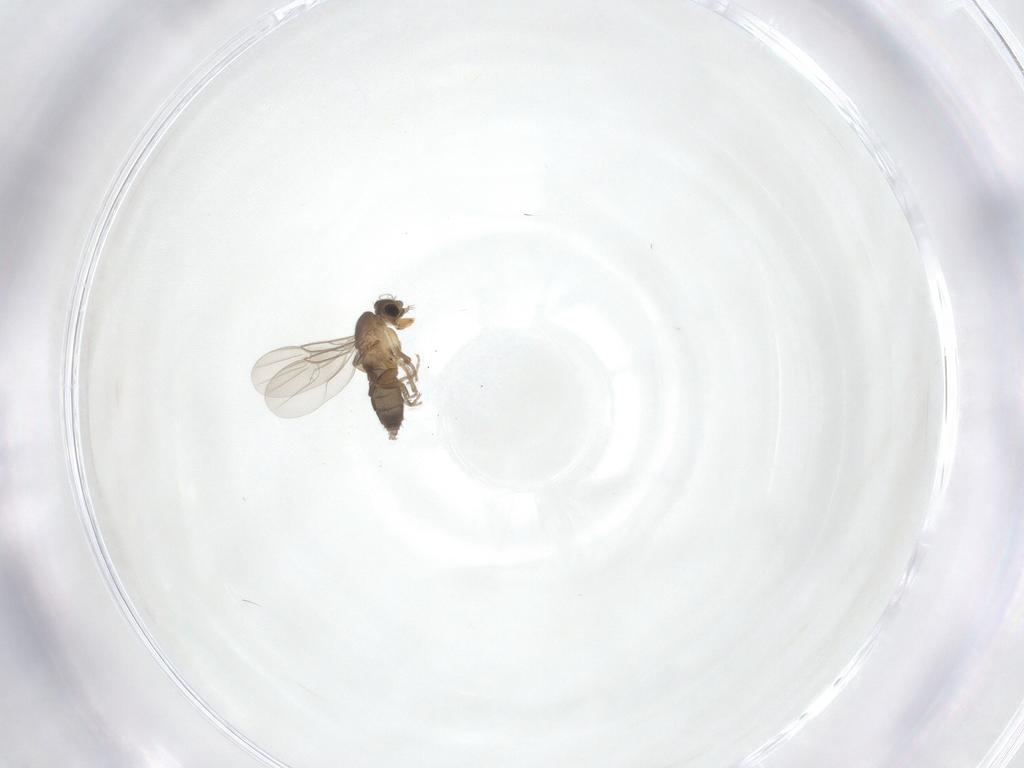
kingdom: Animalia
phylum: Arthropoda
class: Insecta
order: Diptera
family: Phoridae
